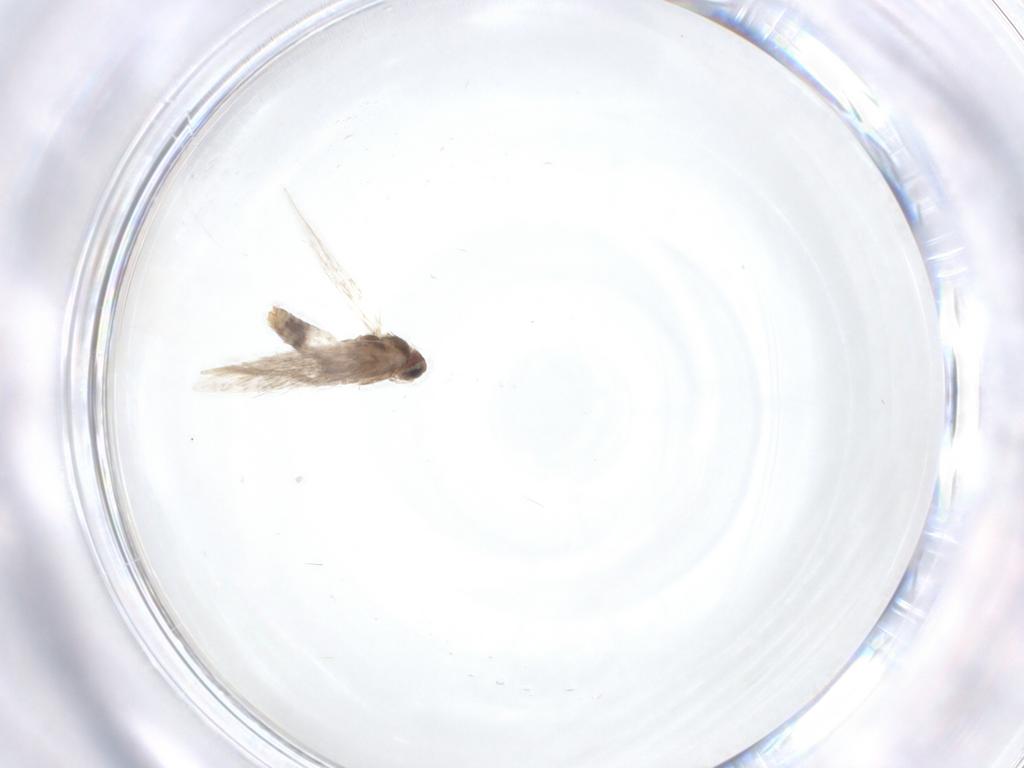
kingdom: Animalia
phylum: Arthropoda
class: Insecta
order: Lepidoptera
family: Nepticulidae
